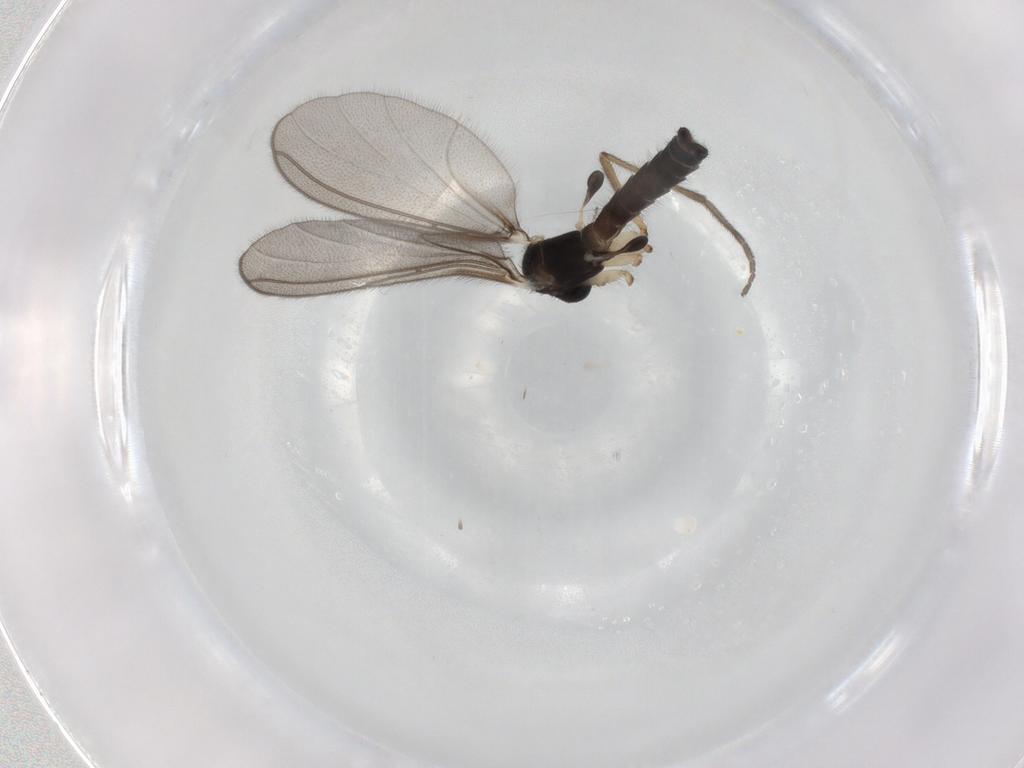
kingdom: Animalia
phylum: Arthropoda
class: Insecta
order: Diptera
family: Mycetophilidae
